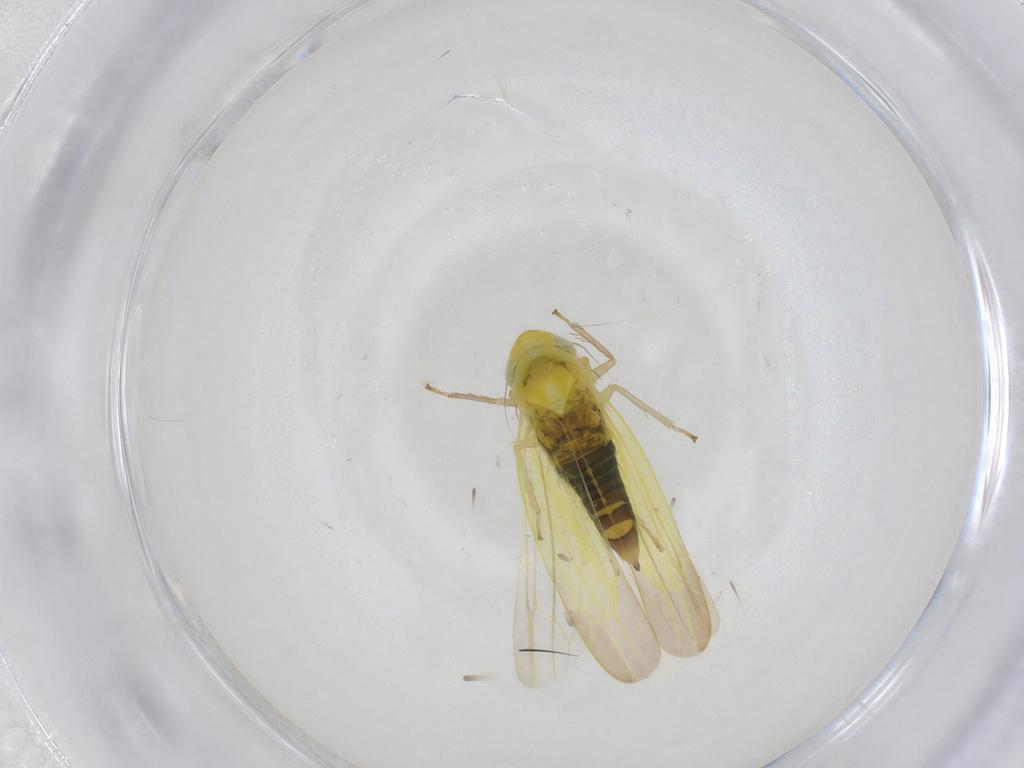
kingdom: Animalia
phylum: Arthropoda
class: Insecta
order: Hemiptera
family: Cicadellidae
